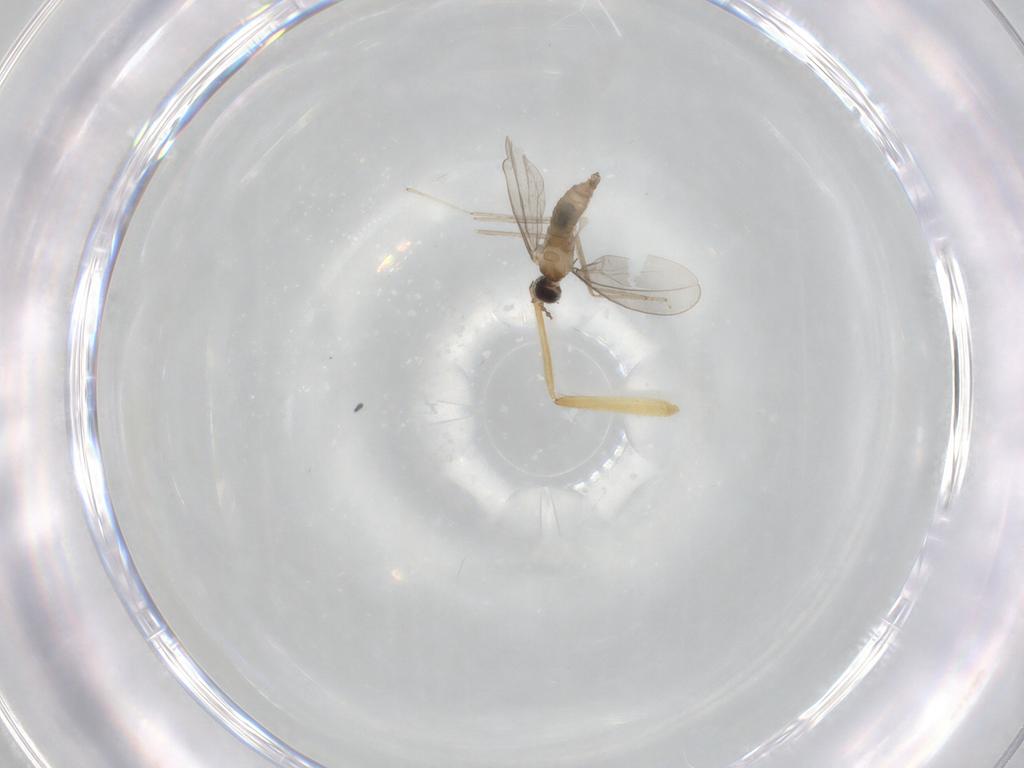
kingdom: Animalia
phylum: Arthropoda
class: Insecta
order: Diptera
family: Cecidomyiidae
